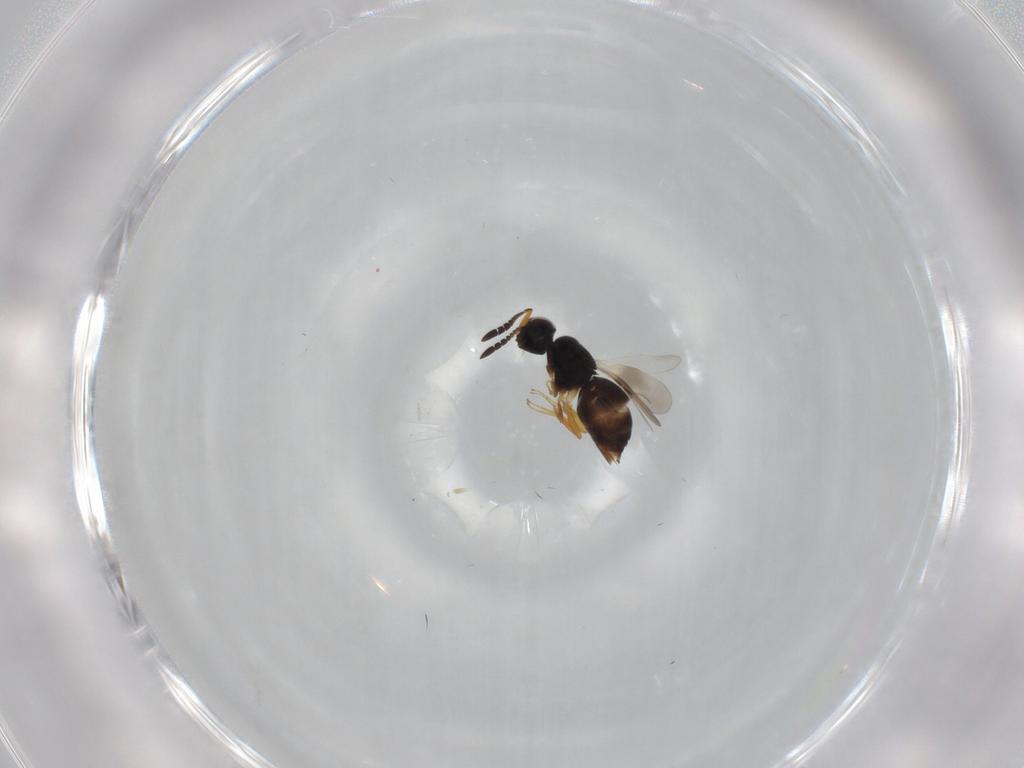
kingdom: Animalia
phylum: Arthropoda
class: Insecta
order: Hymenoptera
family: Ceraphronidae
